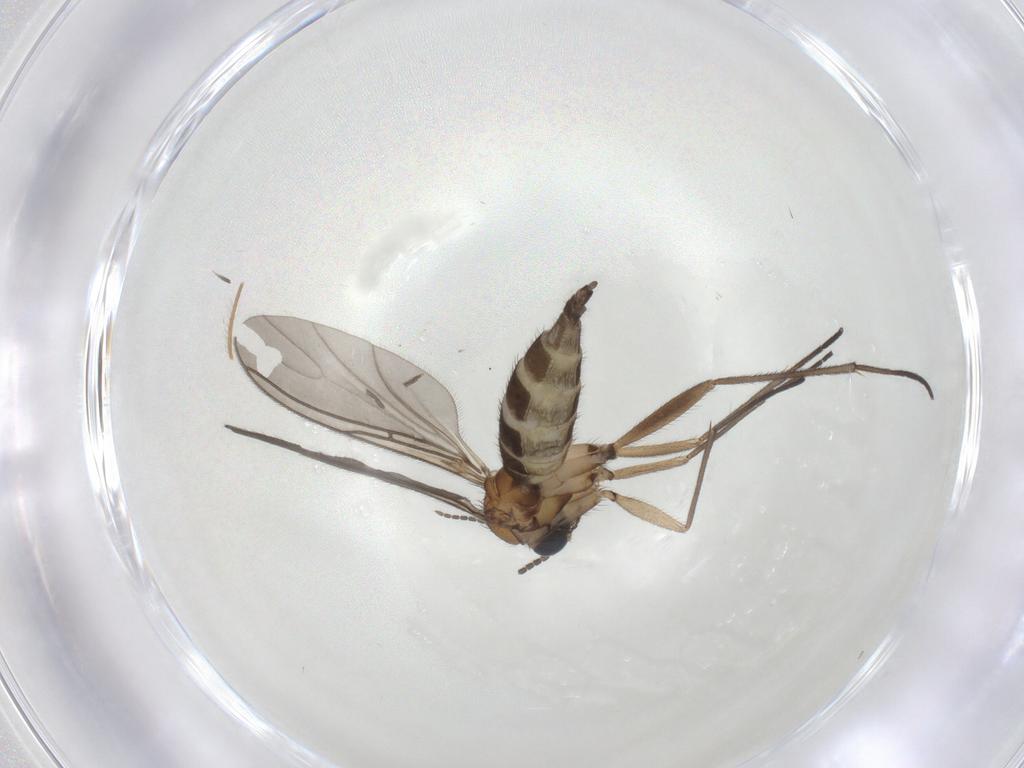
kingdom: Animalia
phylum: Arthropoda
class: Insecta
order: Diptera
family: Sciaridae
